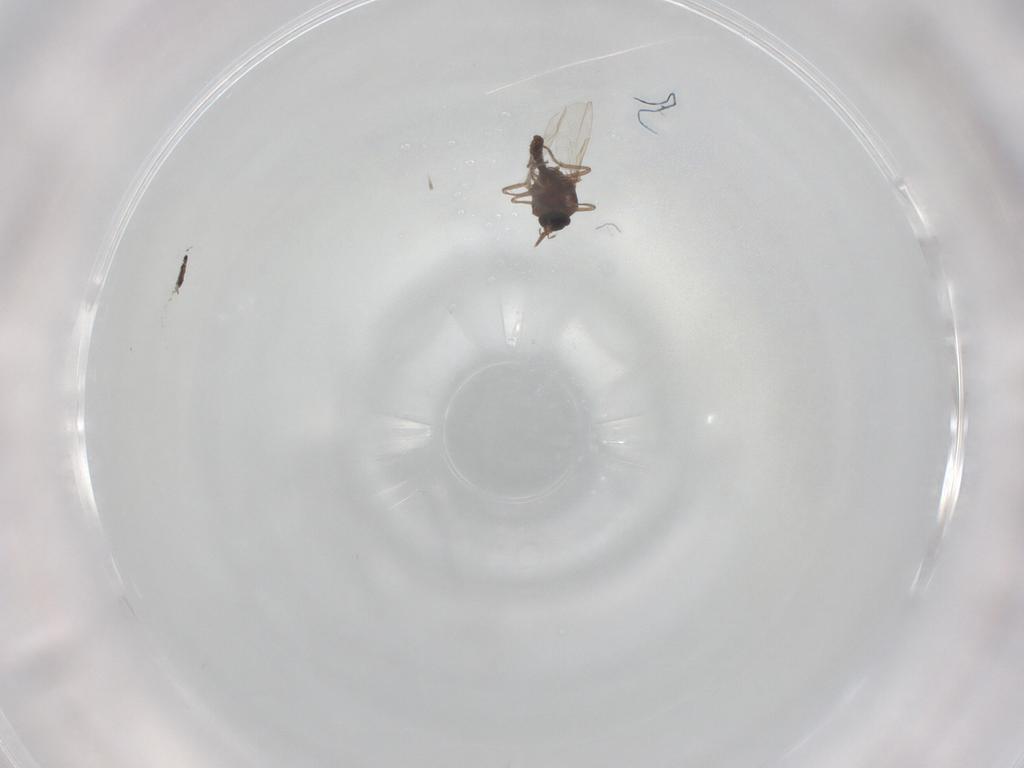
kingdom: Animalia
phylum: Arthropoda
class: Insecta
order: Diptera
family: Ceratopogonidae
